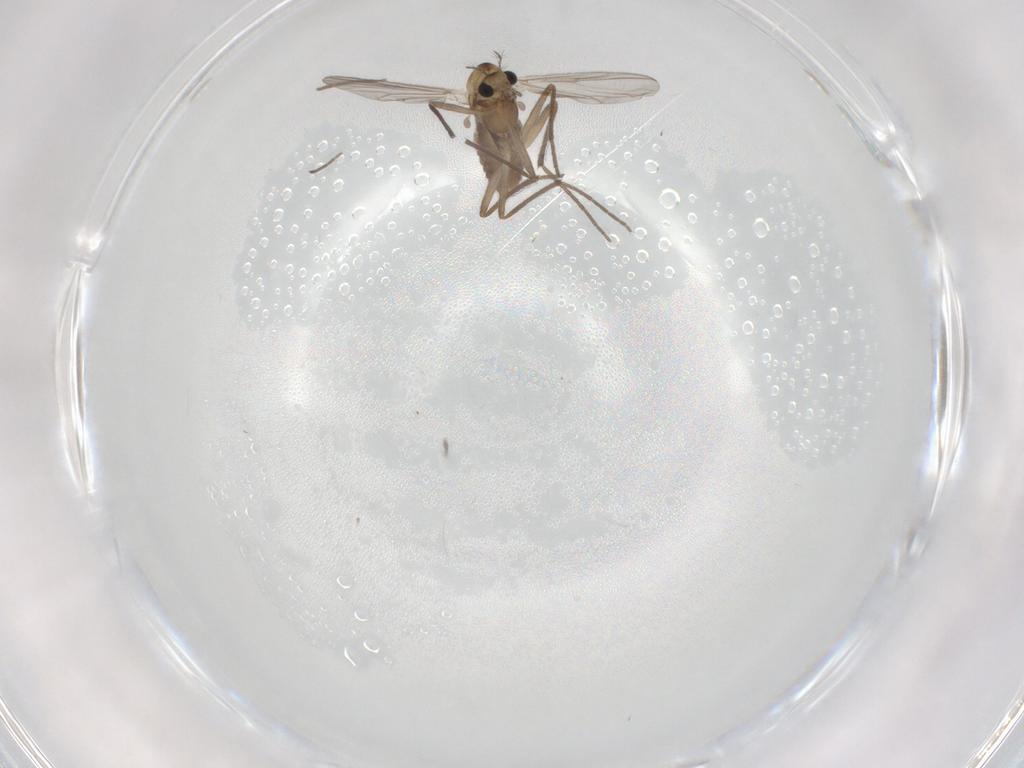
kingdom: Animalia
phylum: Arthropoda
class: Insecta
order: Diptera
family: Chironomidae
